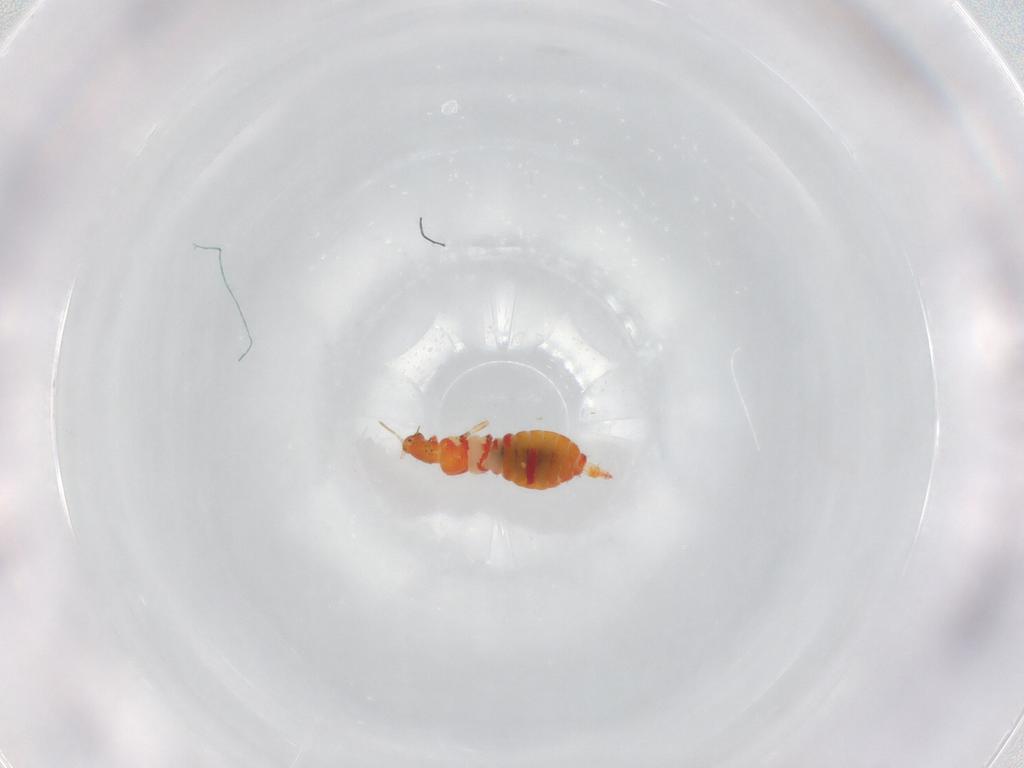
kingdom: Animalia
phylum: Arthropoda
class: Insecta
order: Thysanoptera
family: Aeolothripidae
